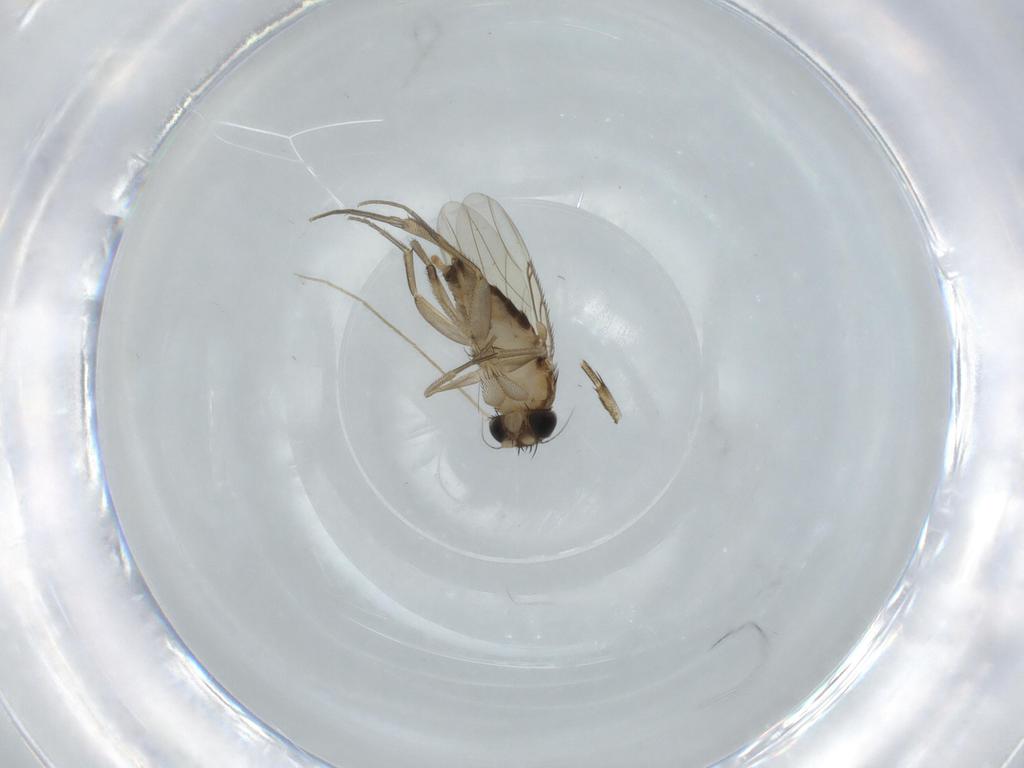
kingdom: Animalia
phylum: Arthropoda
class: Insecta
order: Diptera
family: Phoridae
